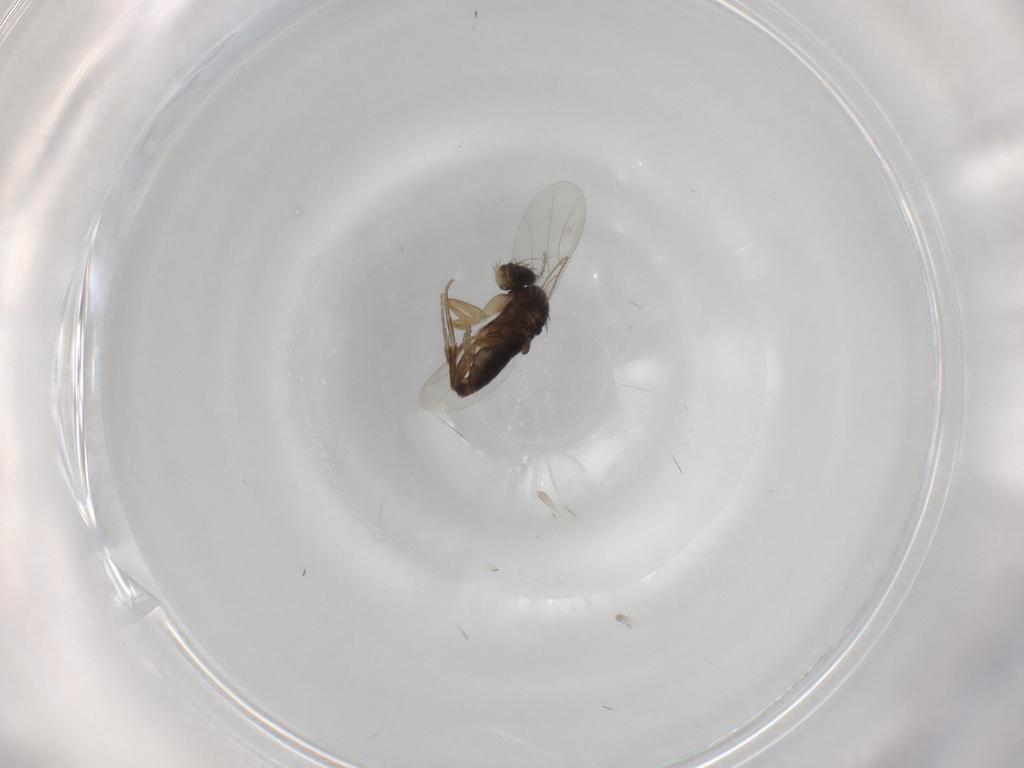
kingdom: Animalia
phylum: Arthropoda
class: Insecta
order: Diptera
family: Phoridae
